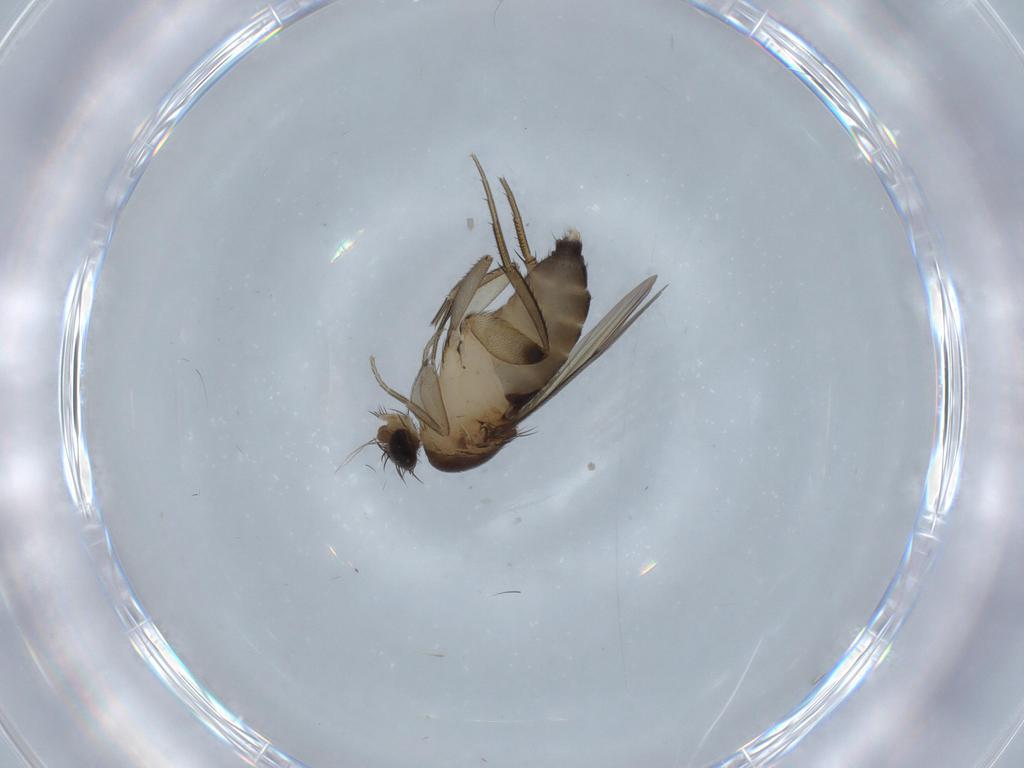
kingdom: Animalia
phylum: Arthropoda
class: Insecta
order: Diptera
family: Phoridae
